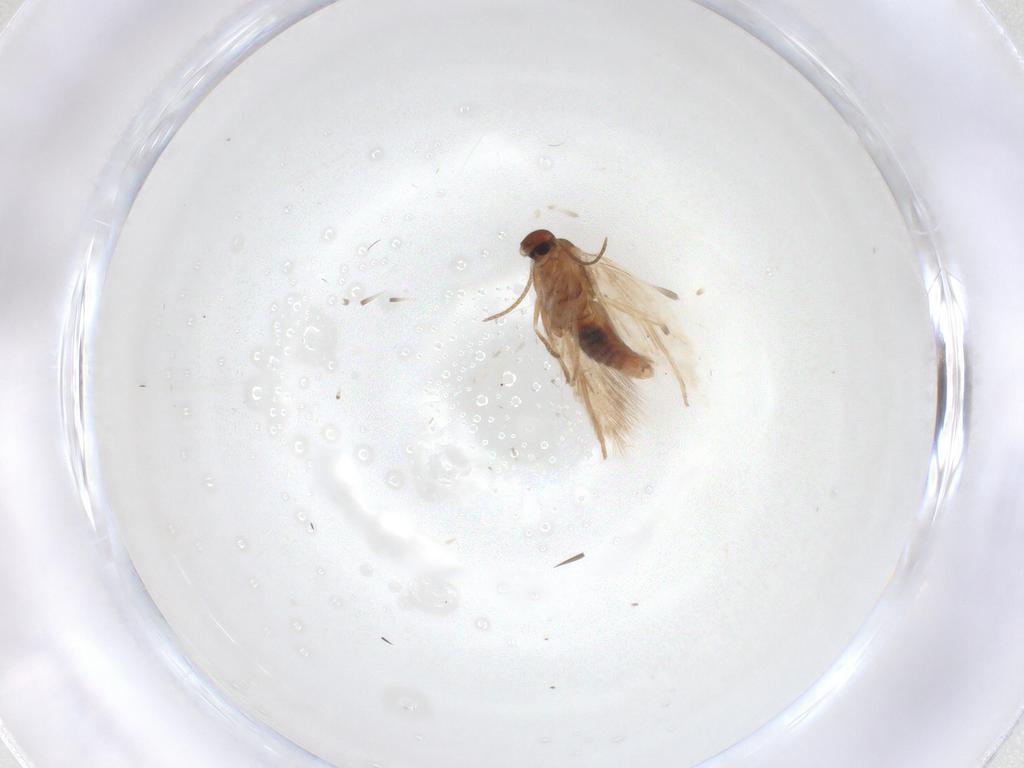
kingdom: Animalia
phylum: Arthropoda
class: Insecta
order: Lepidoptera
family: Gelechiidae
